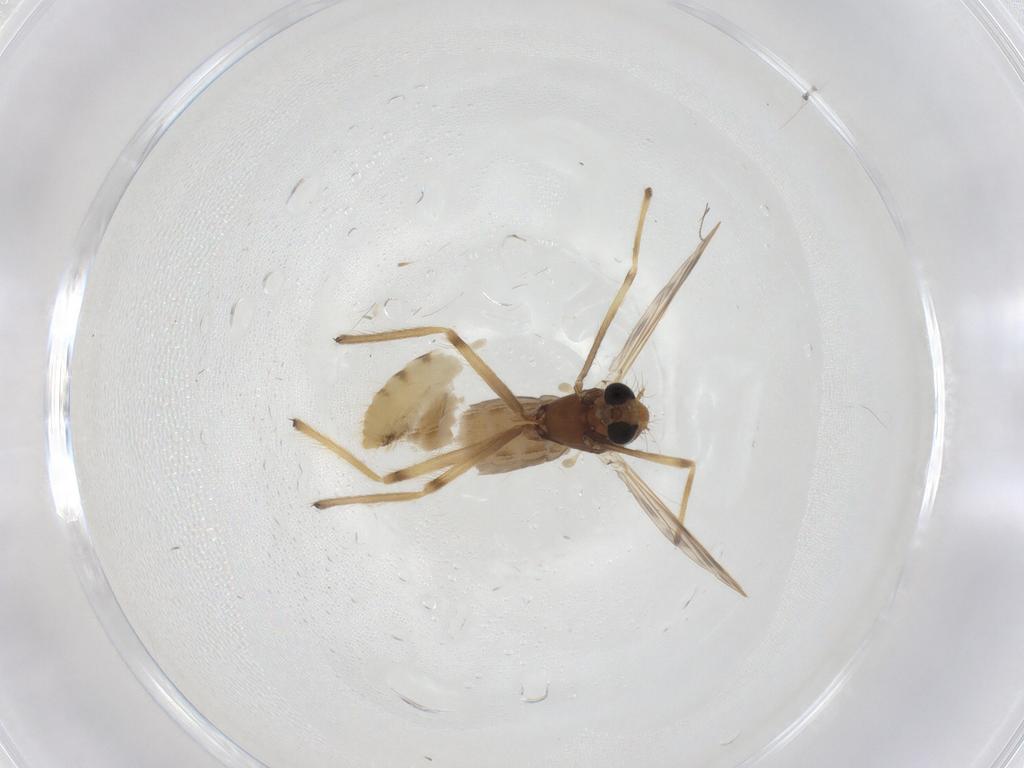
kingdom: Animalia
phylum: Arthropoda
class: Insecta
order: Diptera
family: Chironomidae
